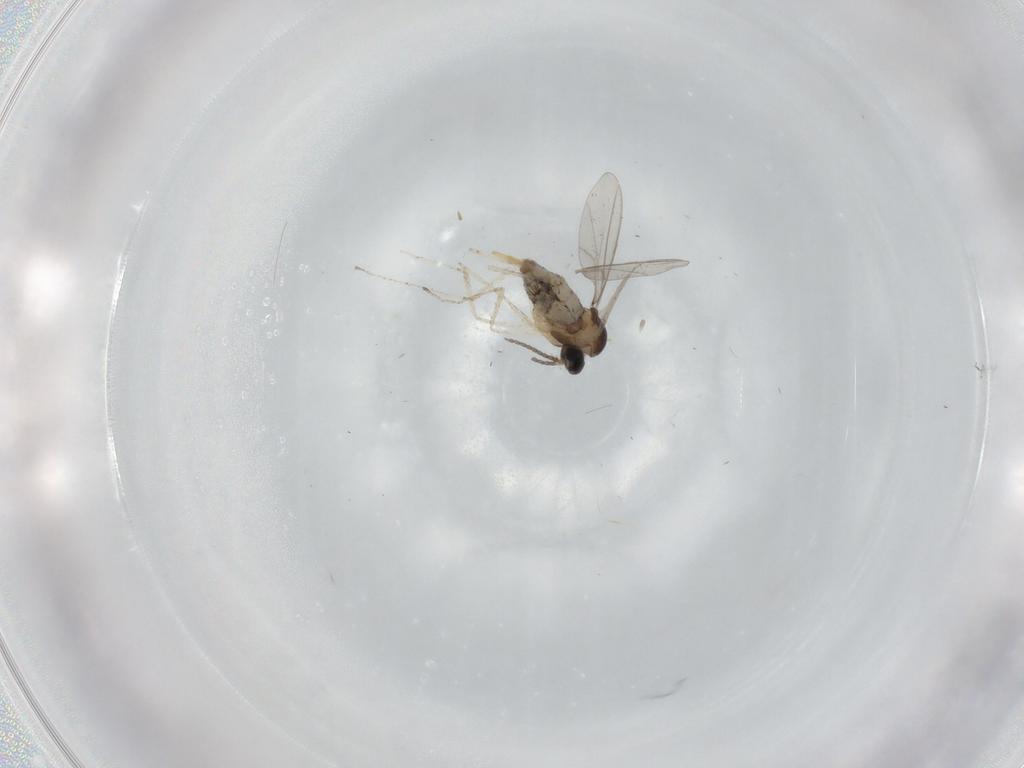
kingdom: Animalia
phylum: Arthropoda
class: Insecta
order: Diptera
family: Cecidomyiidae
